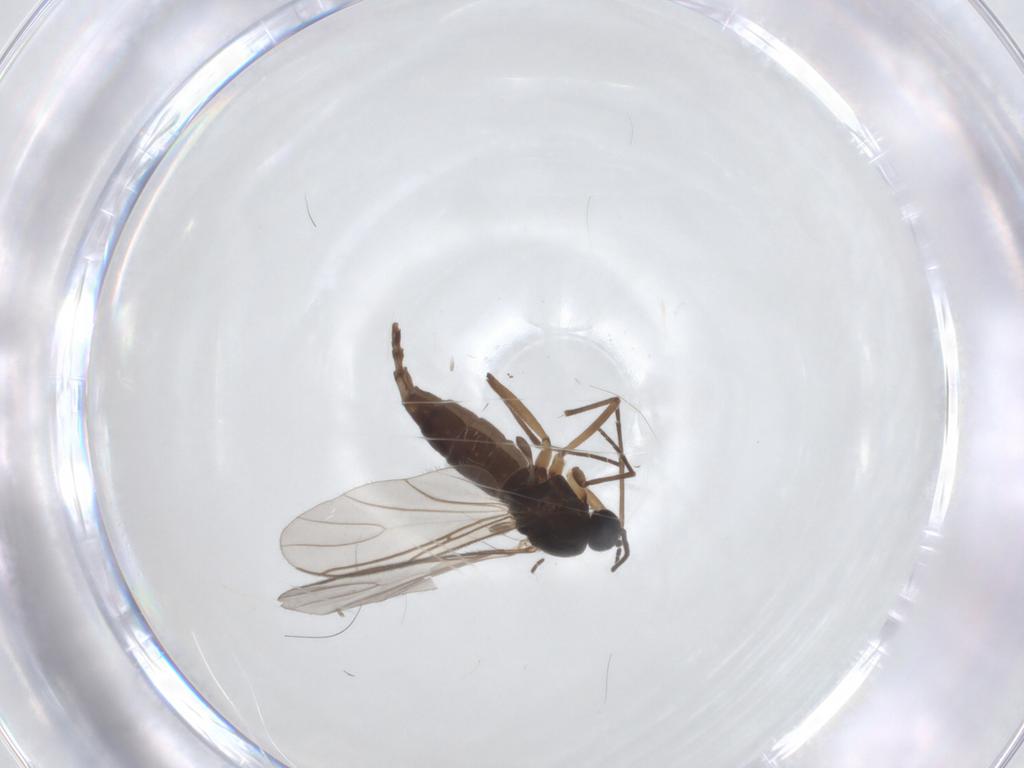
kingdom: Animalia
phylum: Arthropoda
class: Insecta
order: Diptera
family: Sciaridae
